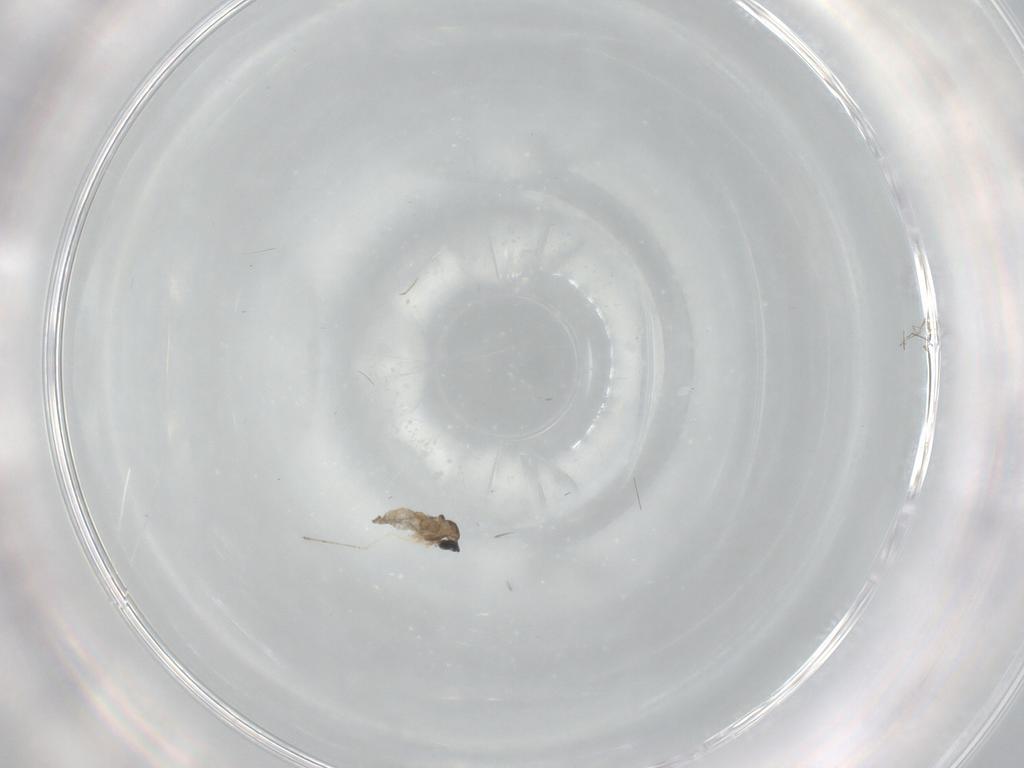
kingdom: Animalia
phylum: Arthropoda
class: Insecta
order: Diptera
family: Cecidomyiidae
